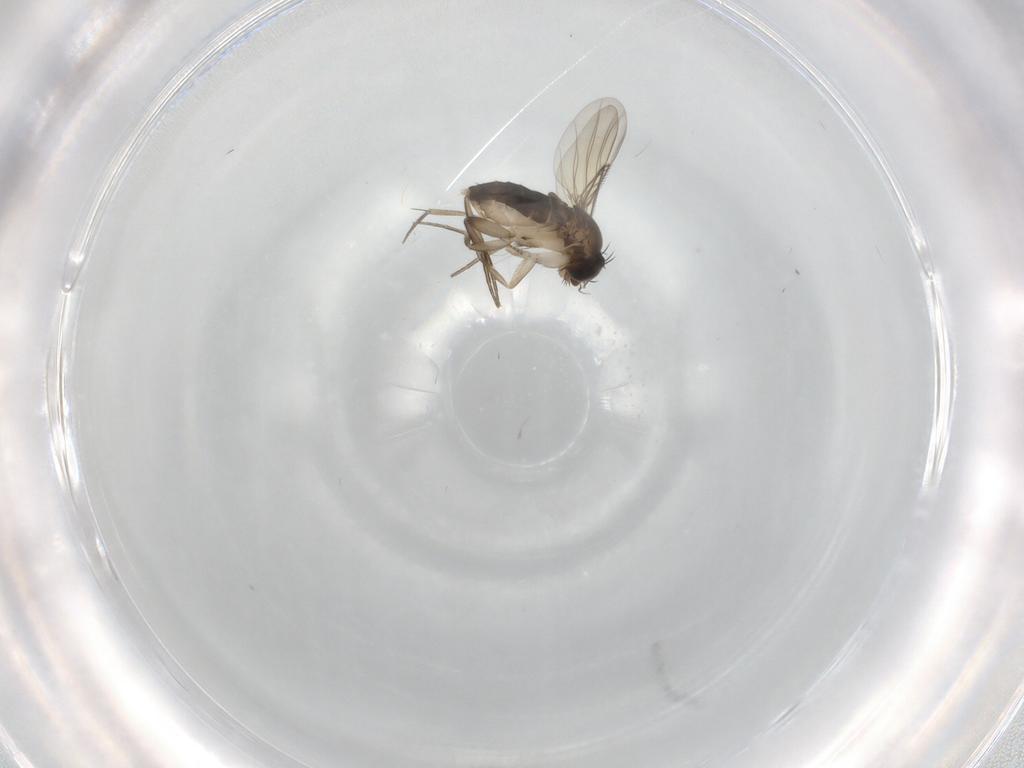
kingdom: Animalia
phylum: Arthropoda
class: Insecta
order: Diptera
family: Phoridae
